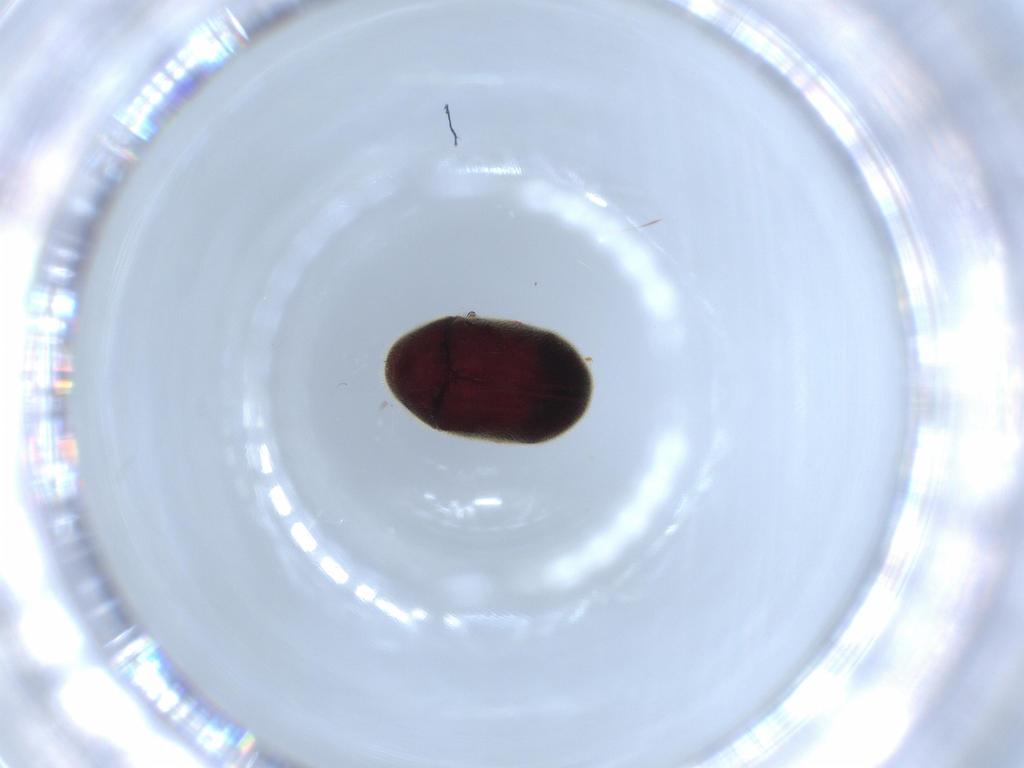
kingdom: Animalia
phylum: Arthropoda
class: Insecta
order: Coleoptera
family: Ptinidae
